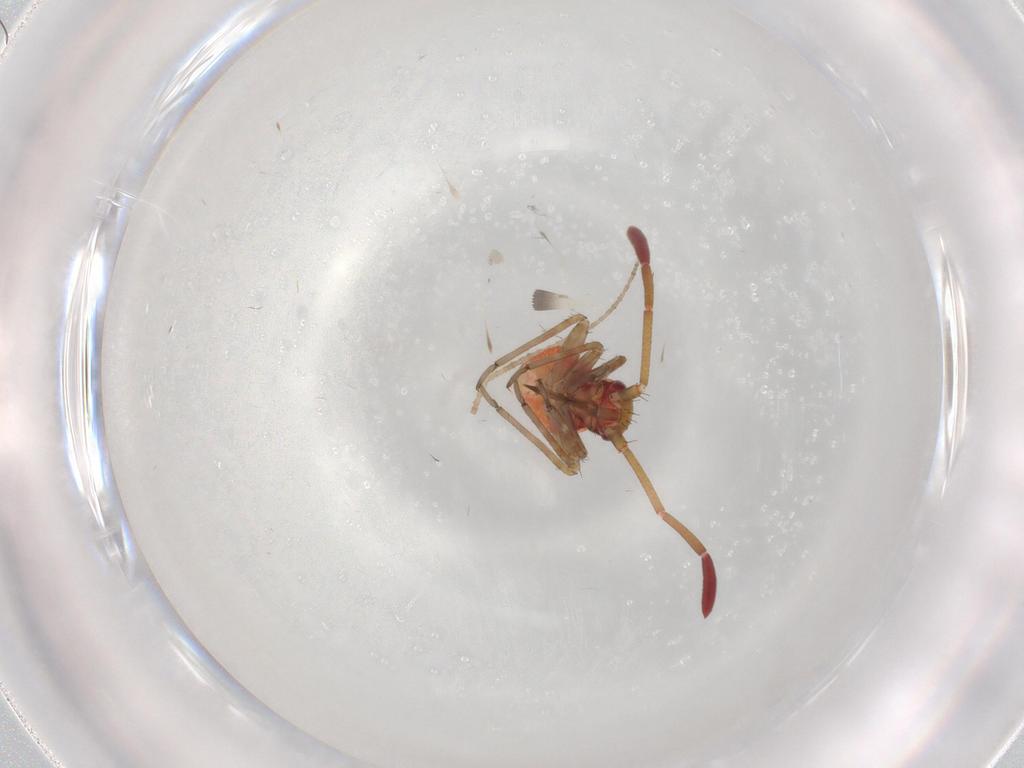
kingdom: Animalia
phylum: Arthropoda
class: Insecta
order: Hemiptera
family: Miridae
